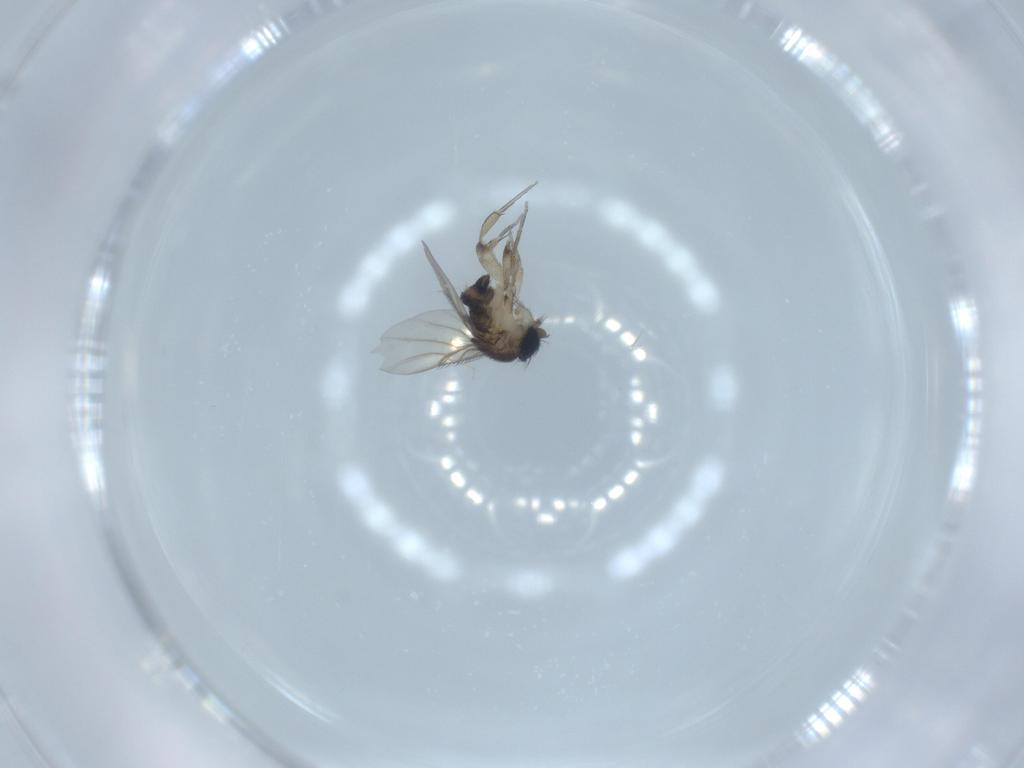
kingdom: Animalia
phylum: Arthropoda
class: Insecta
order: Diptera
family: Phoridae
